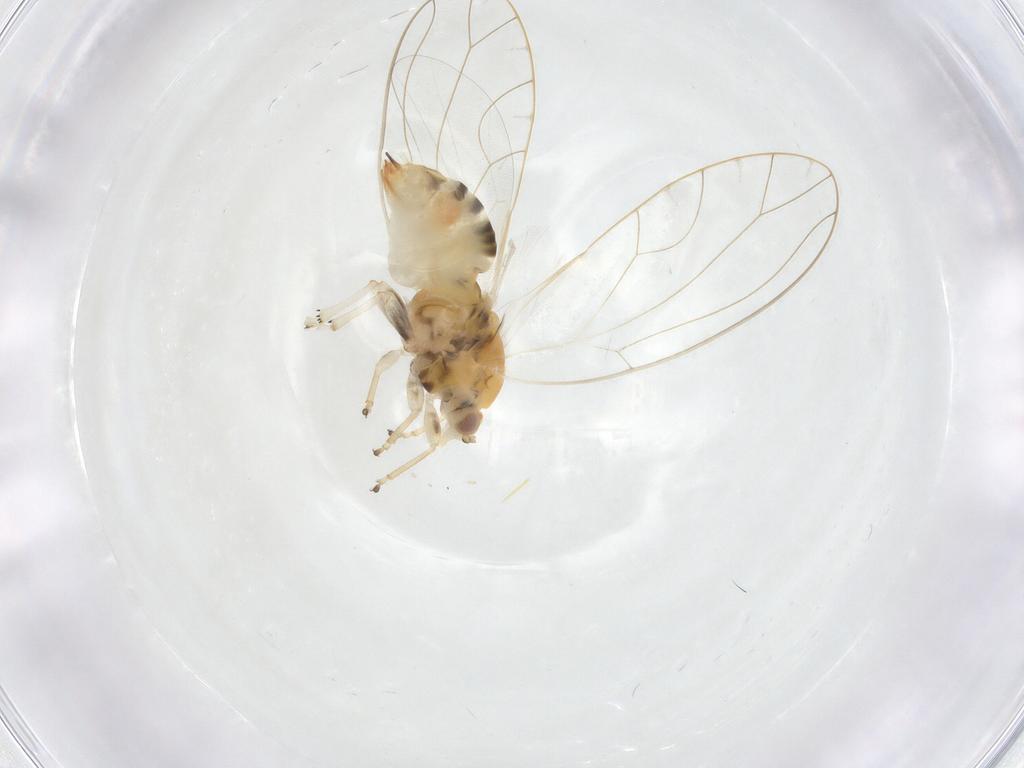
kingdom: Animalia
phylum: Arthropoda
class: Insecta
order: Hemiptera
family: Triozidae
